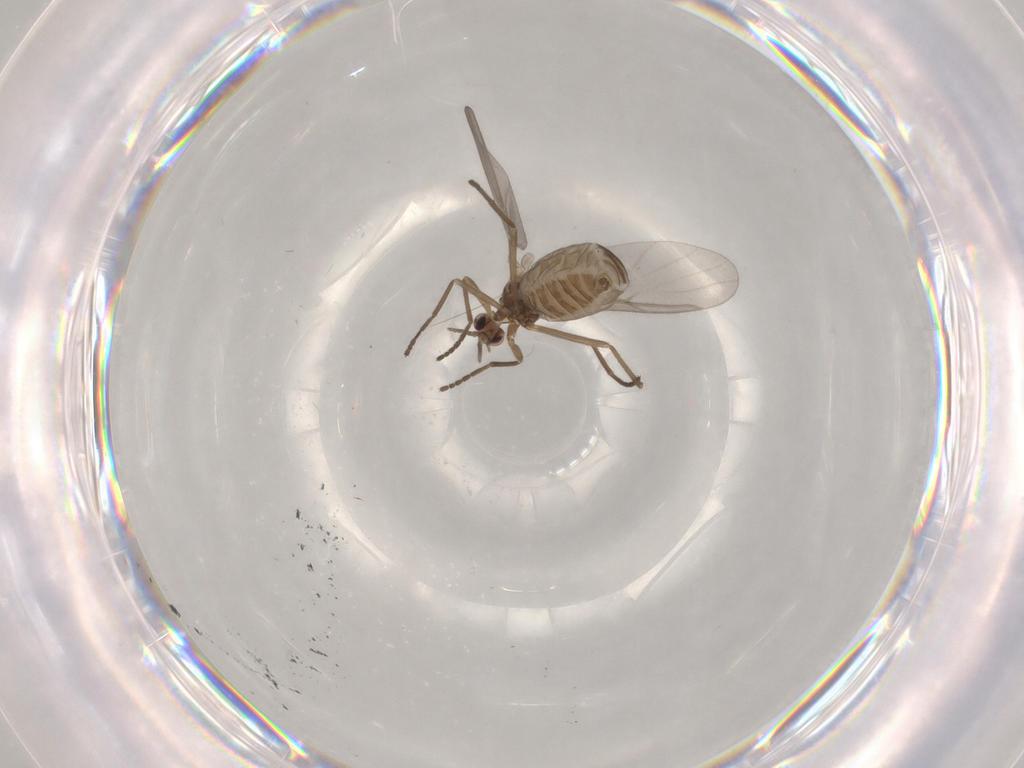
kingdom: Animalia
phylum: Arthropoda
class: Insecta
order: Diptera
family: Cecidomyiidae
